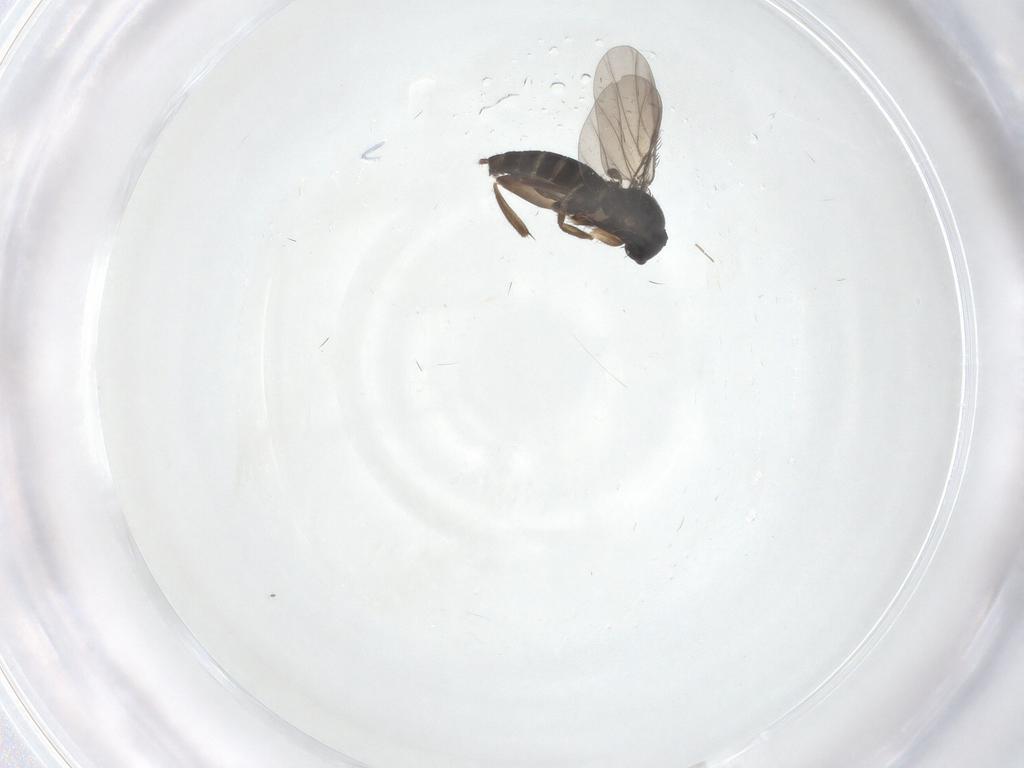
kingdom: Animalia
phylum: Arthropoda
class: Insecta
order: Diptera
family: Phoridae
